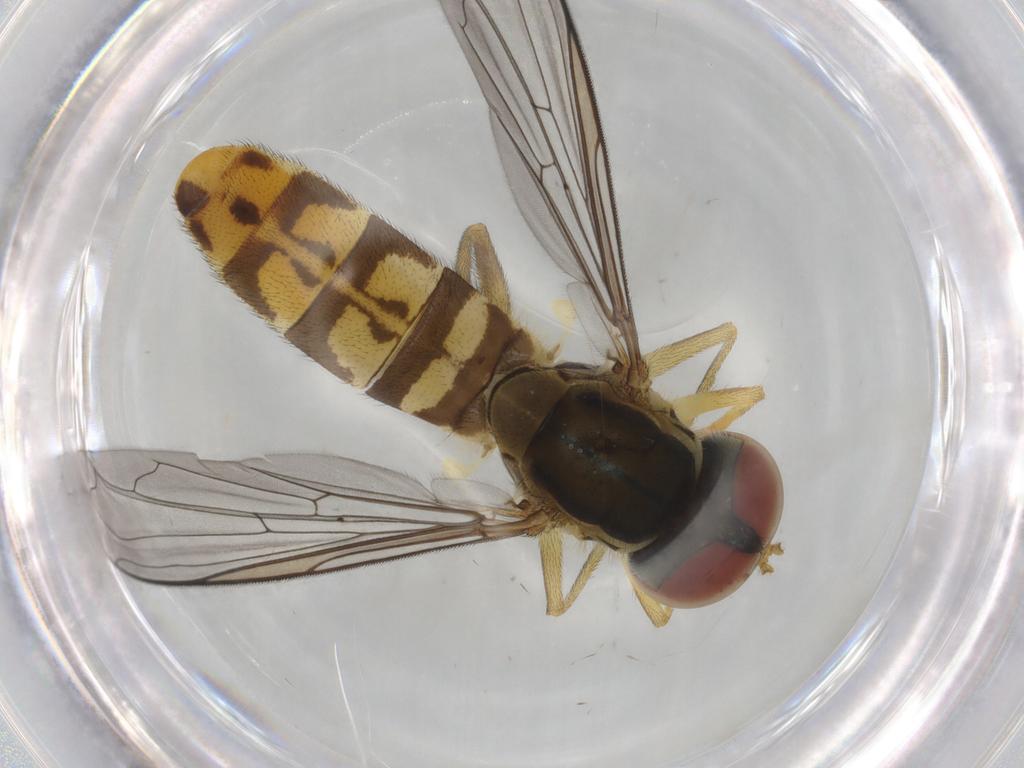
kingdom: Animalia
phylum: Arthropoda
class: Insecta
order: Diptera
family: Syrphidae
